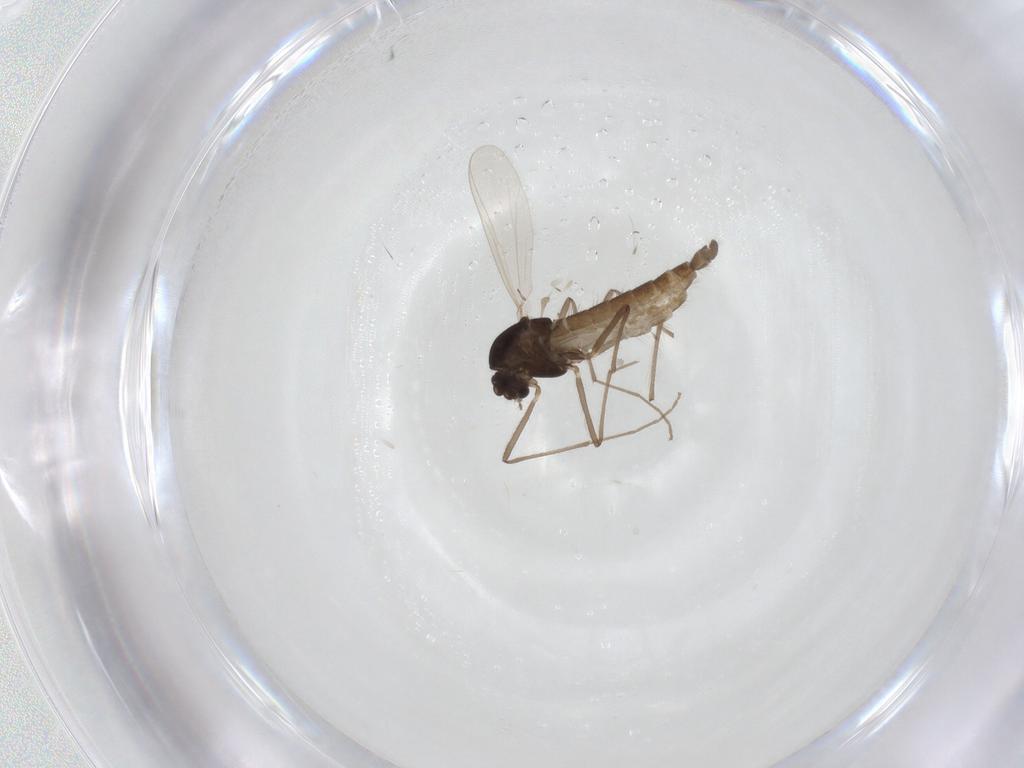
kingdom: Animalia
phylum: Arthropoda
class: Insecta
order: Diptera
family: Chironomidae
